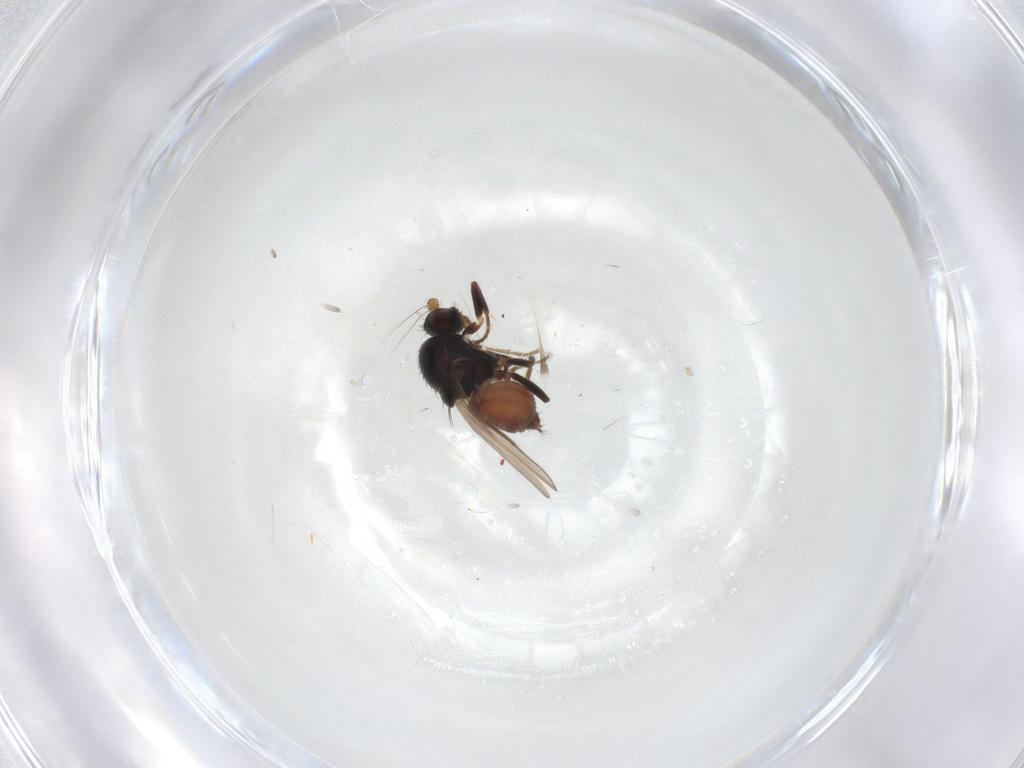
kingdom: Animalia
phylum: Arthropoda
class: Insecta
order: Diptera
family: Sphaeroceridae
